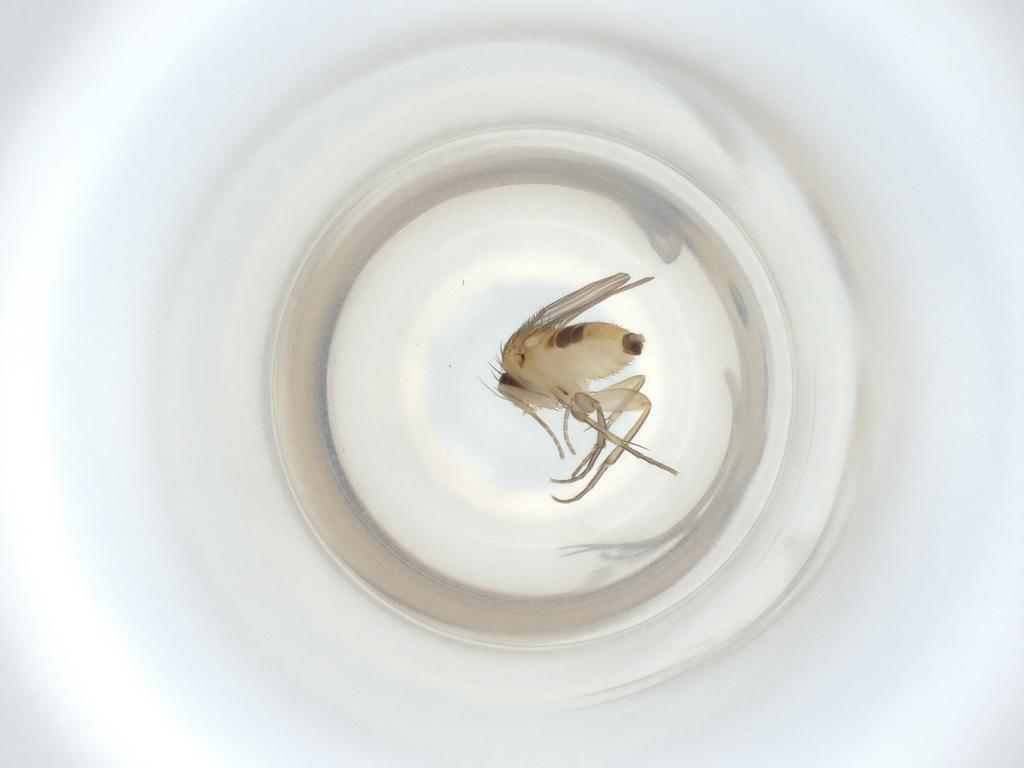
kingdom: Animalia
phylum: Arthropoda
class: Insecta
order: Diptera
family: Phoridae
